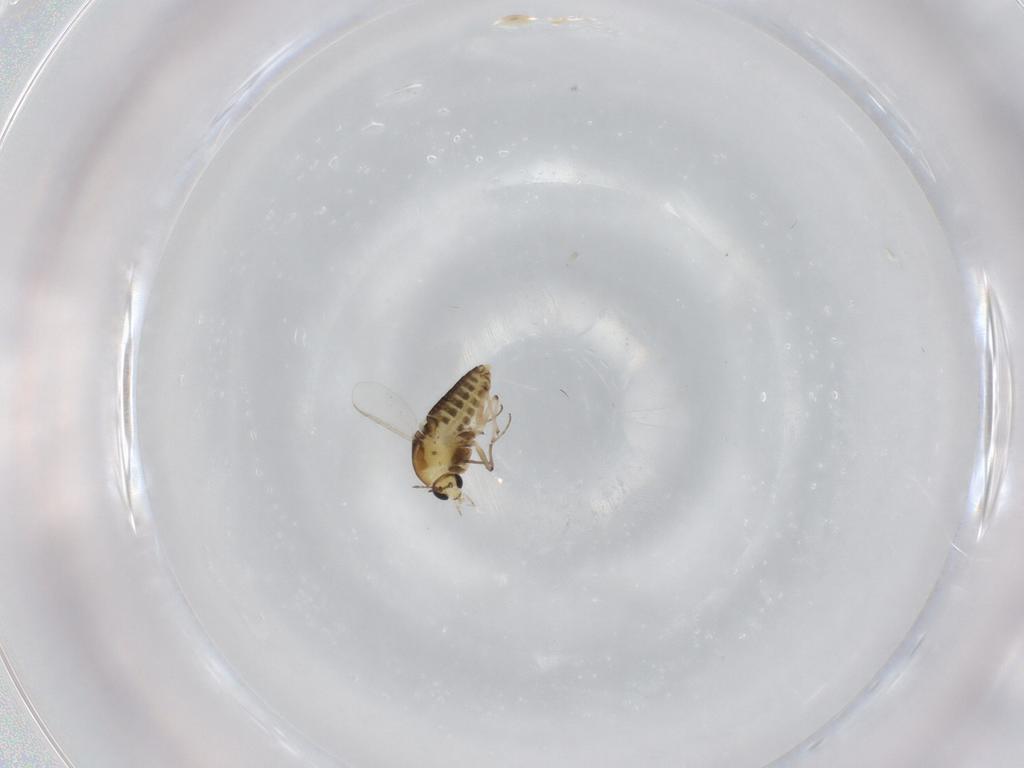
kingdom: Animalia
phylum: Arthropoda
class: Insecta
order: Diptera
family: Chironomidae
